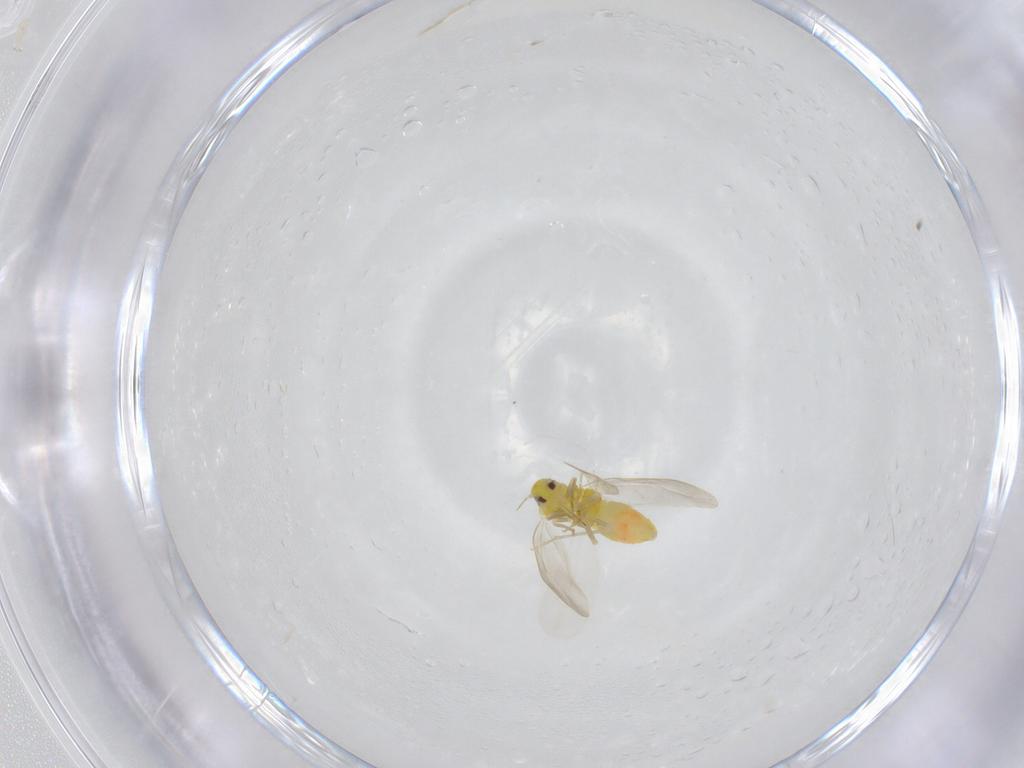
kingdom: Animalia
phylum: Arthropoda
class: Insecta
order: Hemiptera
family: Aleyrodidae
